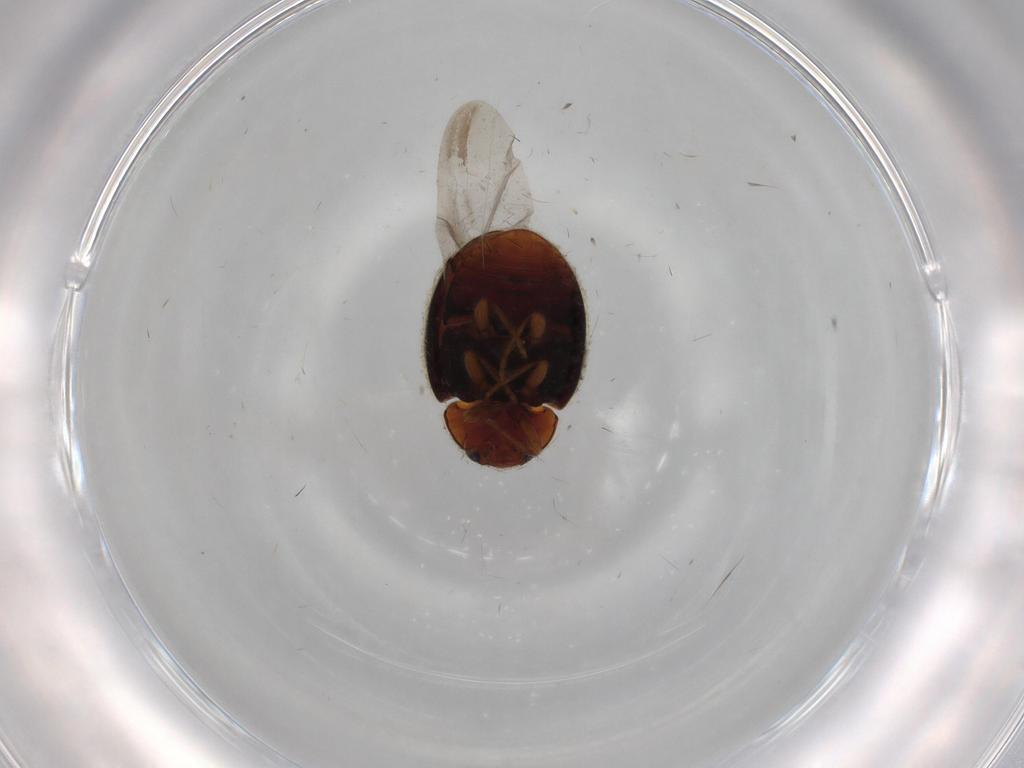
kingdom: Animalia
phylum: Arthropoda
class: Insecta
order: Coleoptera
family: Coccinellidae
